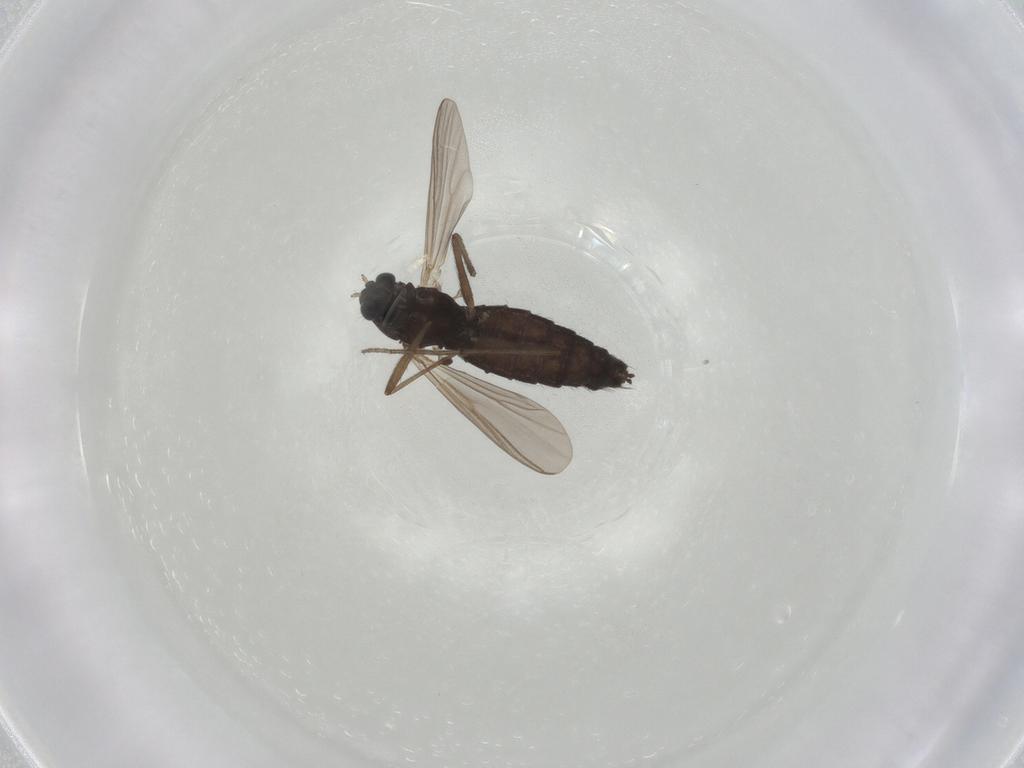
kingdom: Animalia
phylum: Arthropoda
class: Insecta
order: Diptera
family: Chironomidae
